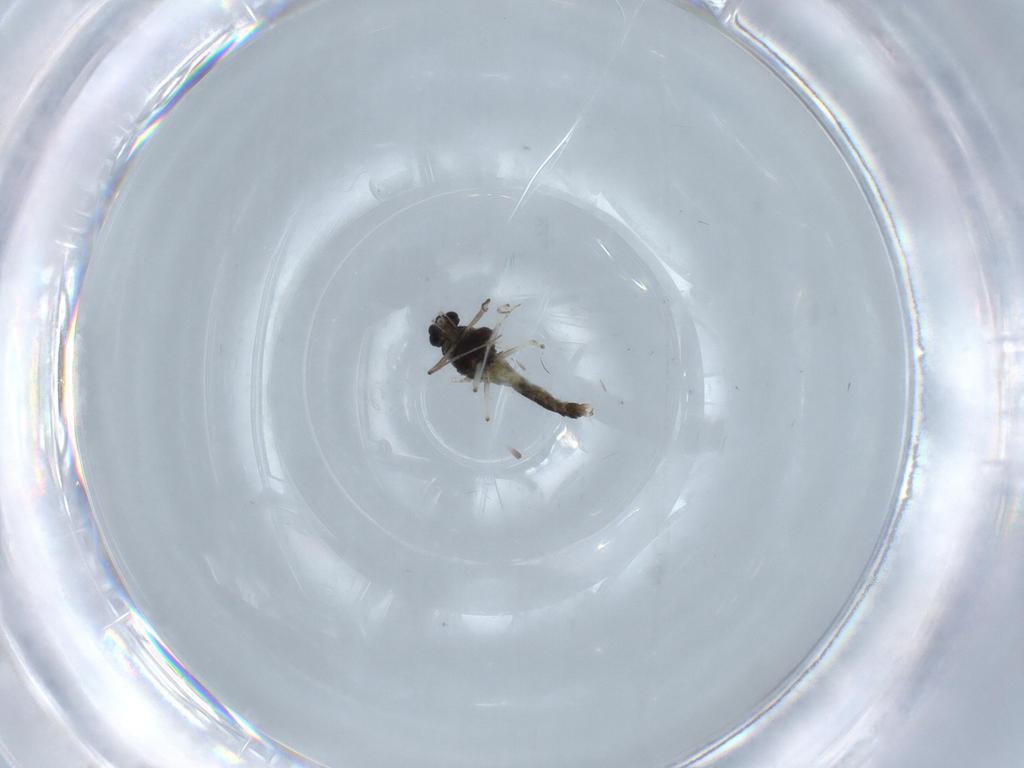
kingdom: Animalia
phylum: Arthropoda
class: Insecta
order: Diptera
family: Chironomidae
